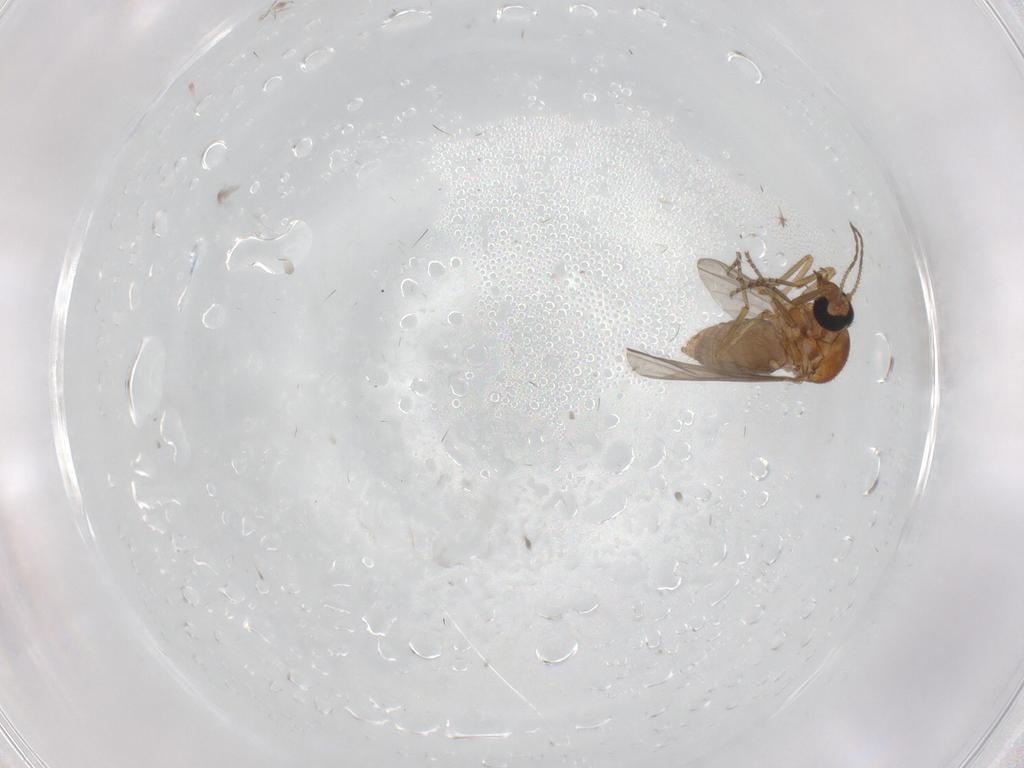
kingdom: Animalia
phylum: Arthropoda
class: Insecta
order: Diptera
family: Ceratopogonidae
